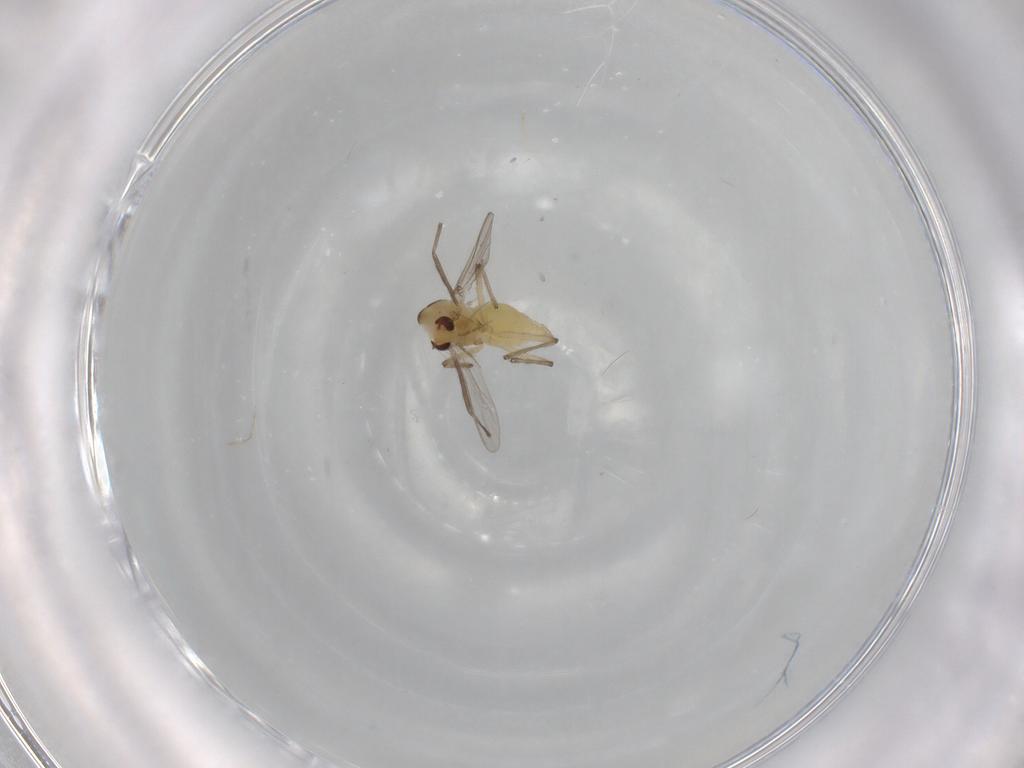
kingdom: Animalia
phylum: Arthropoda
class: Insecta
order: Diptera
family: Chironomidae
